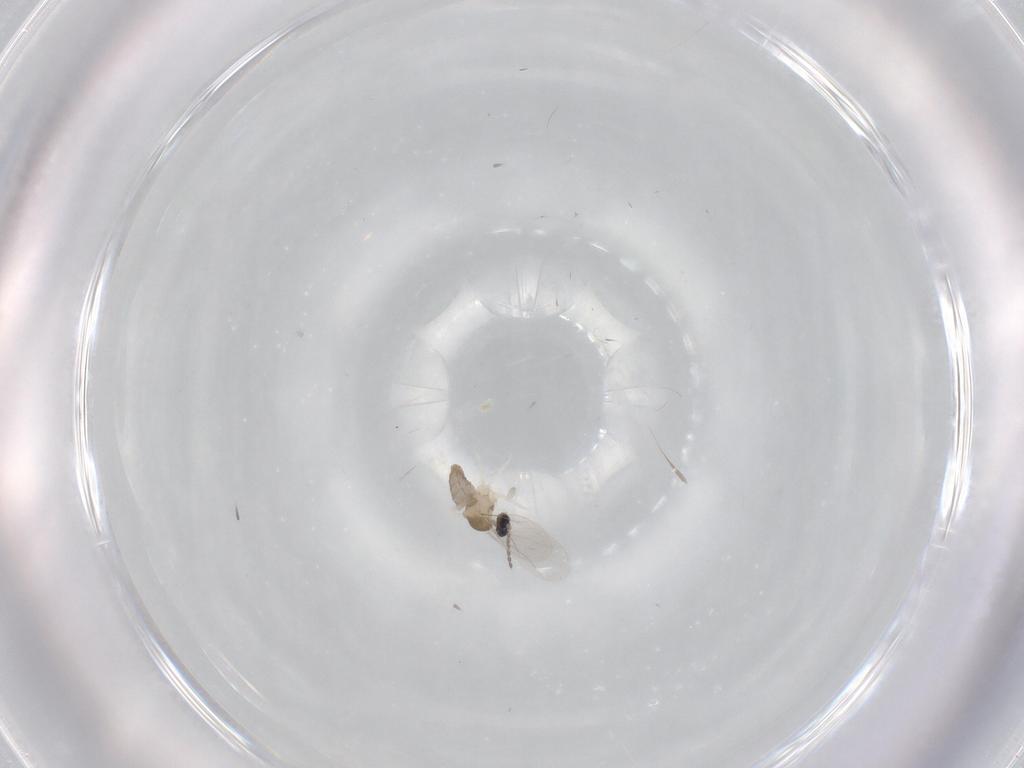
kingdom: Animalia
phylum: Arthropoda
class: Insecta
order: Diptera
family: Cecidomyiidae
